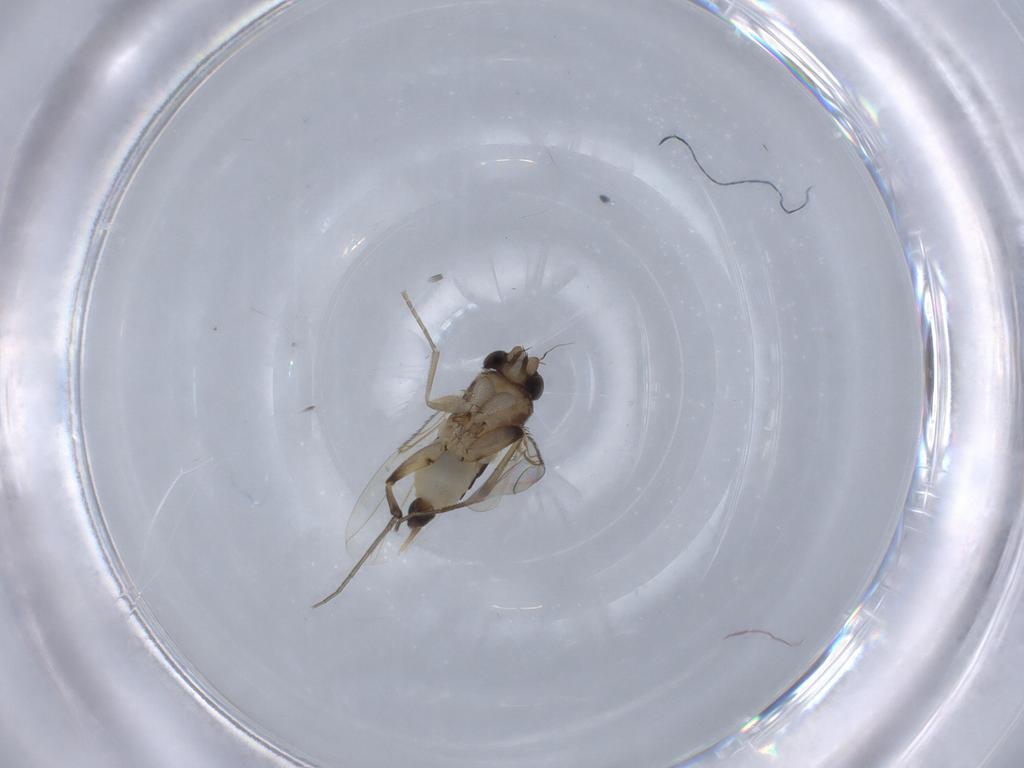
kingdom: Animalia
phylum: Arthropoda
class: Insecta
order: Diptera
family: Phoridae
